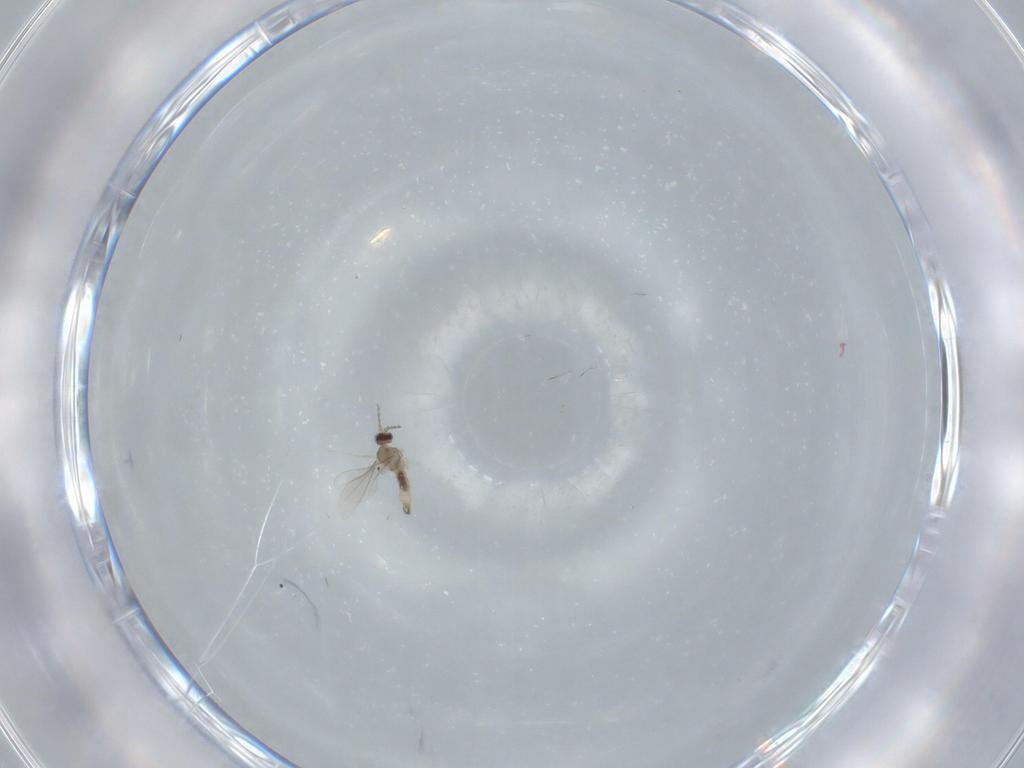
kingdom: Animalia
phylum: Arthropoda
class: Insecta
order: Diptera
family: Cecidomyiidae
